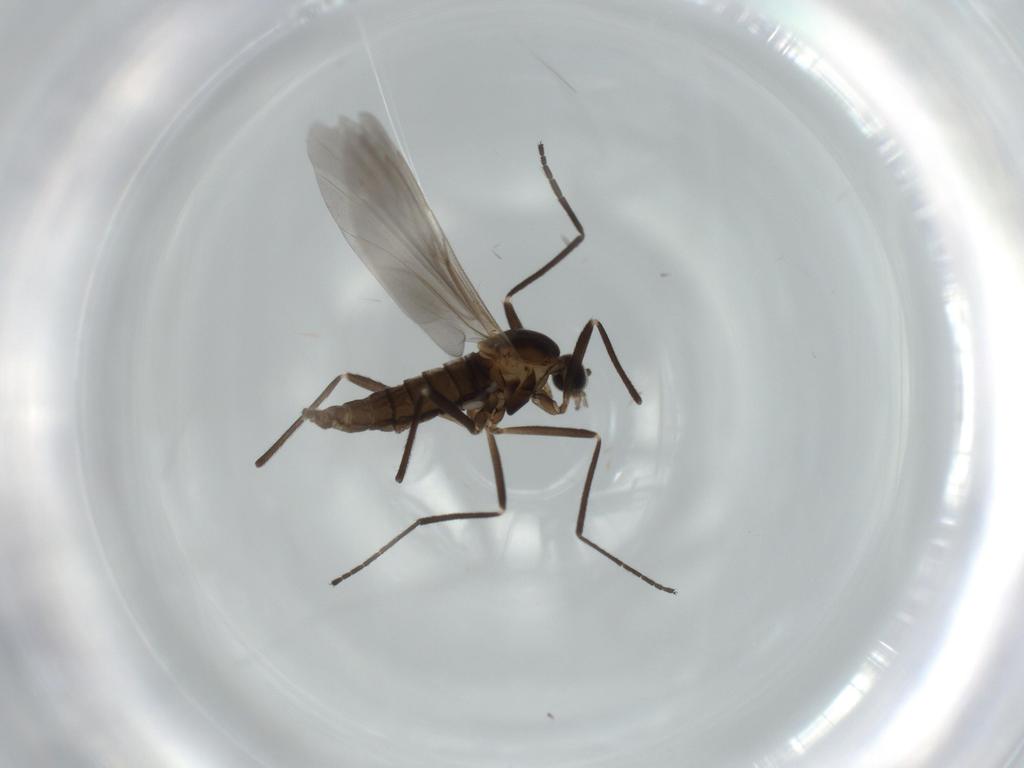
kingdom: Animalia
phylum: Arthropoda
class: Insecta
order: Diptera
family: Cecidomyiidae
